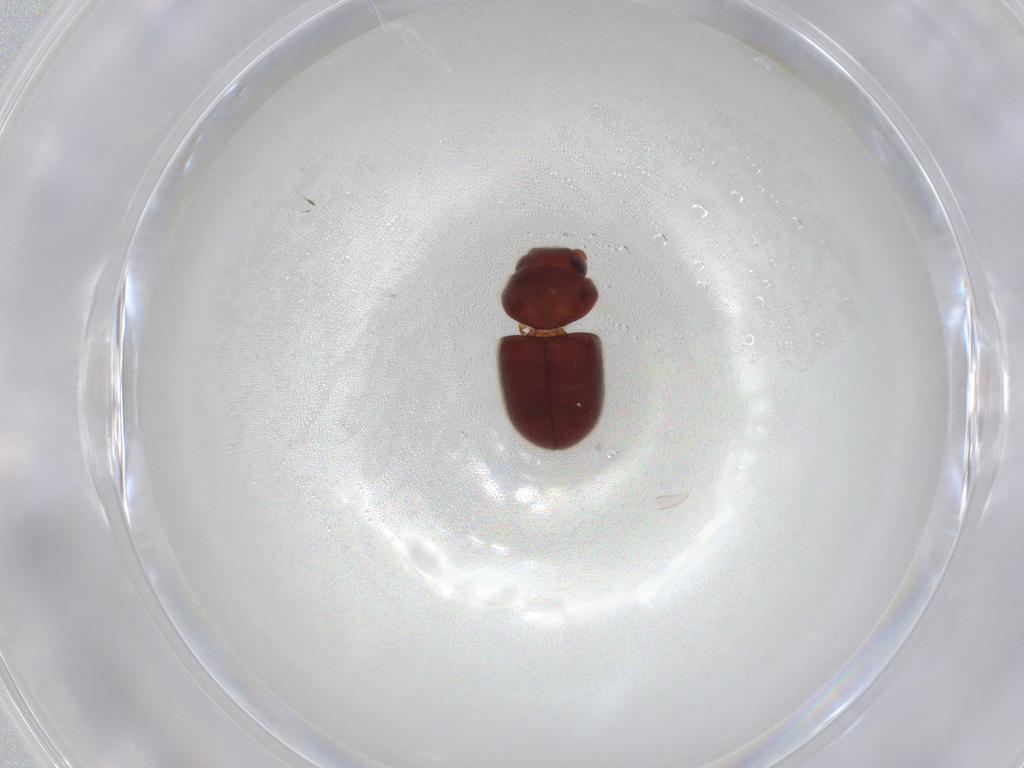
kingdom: Animalia
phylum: Arthropoda
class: Insecta
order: Coleoptera
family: Ptinidae
